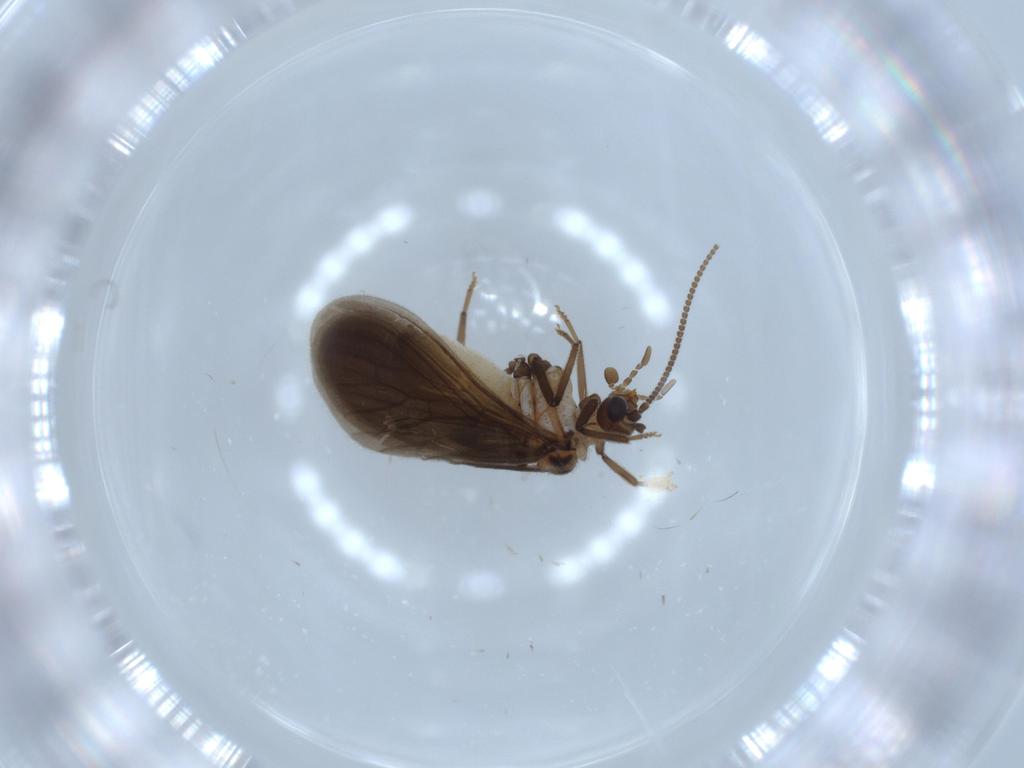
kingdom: Animalia
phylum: Arthropoda
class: Insecta
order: Neuroptera
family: Coniopterygidae
